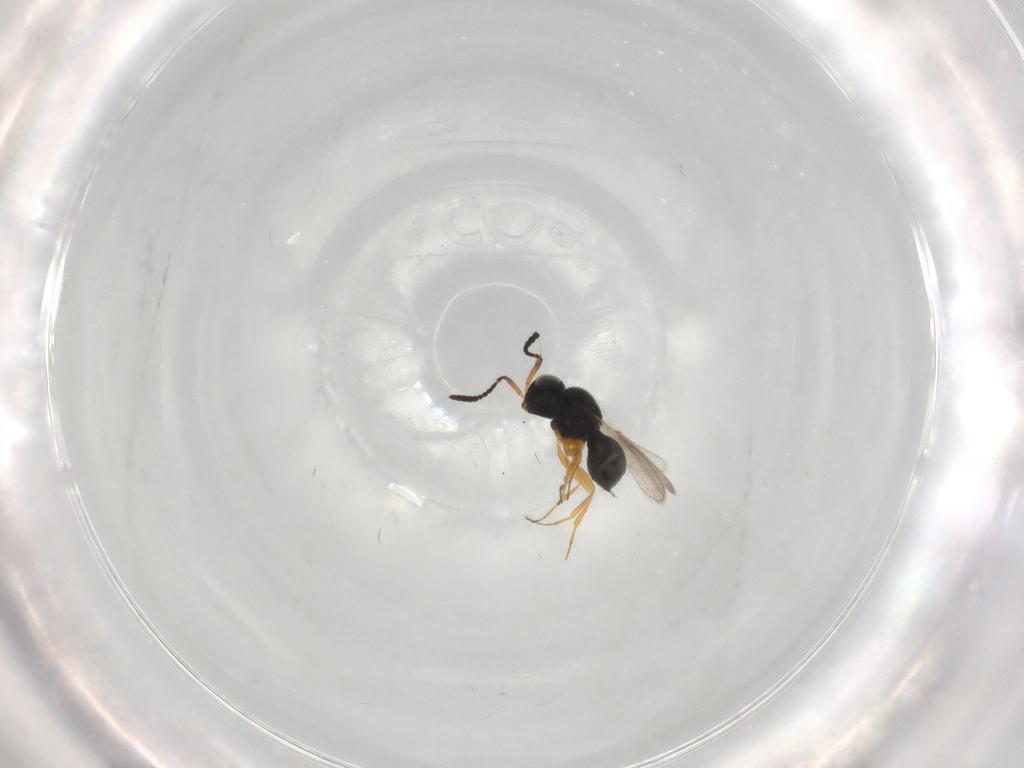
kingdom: Animalia
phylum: Arthropoda
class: Insecta
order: Hymenoptera
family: Scelionidae
